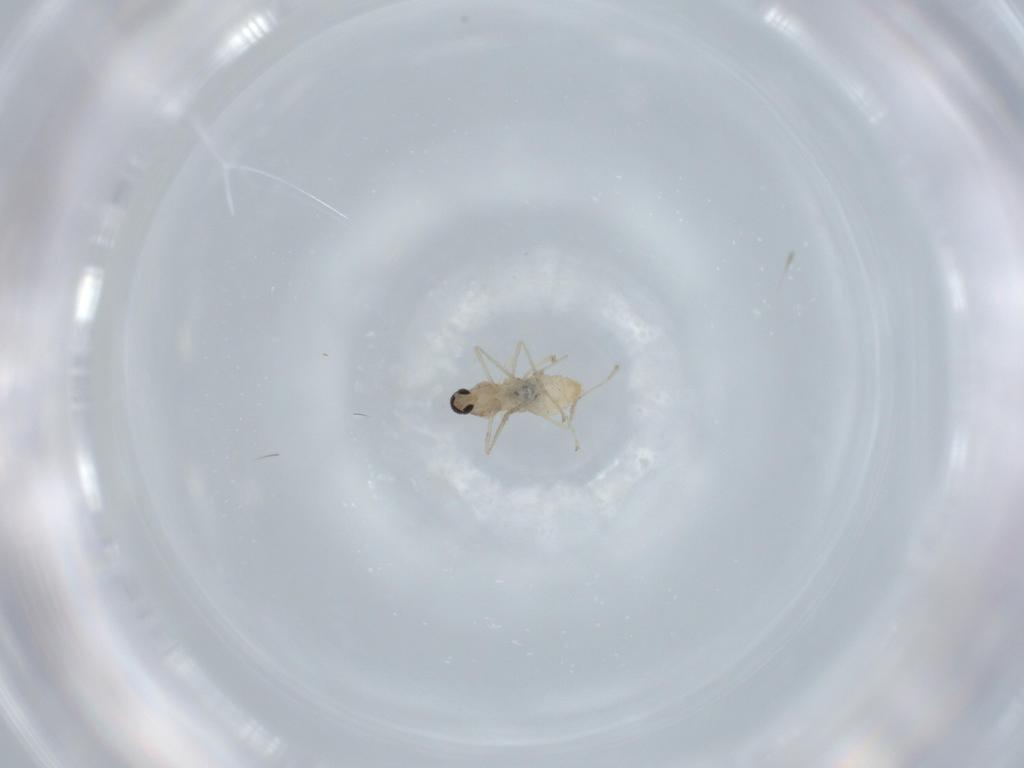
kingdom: Animalia
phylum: Arthropoda
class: Insecta
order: Diptera
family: Cecidomyiidae
